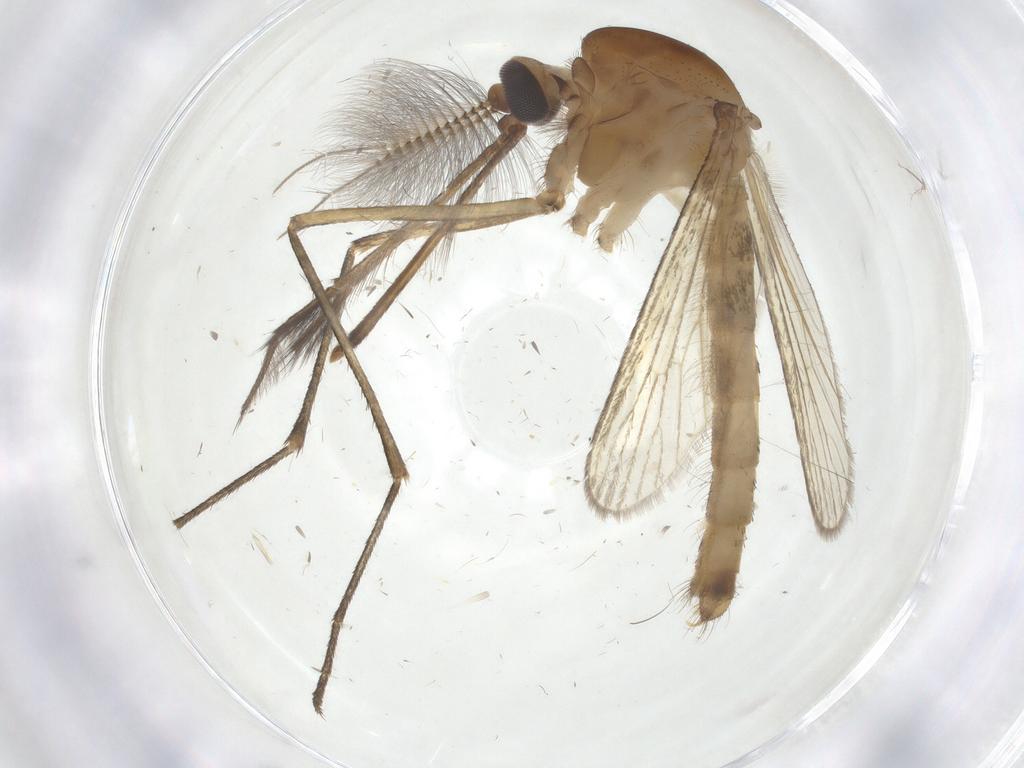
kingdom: Animalia
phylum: Arthropoda
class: Insecta
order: Diptera
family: Culicidae
